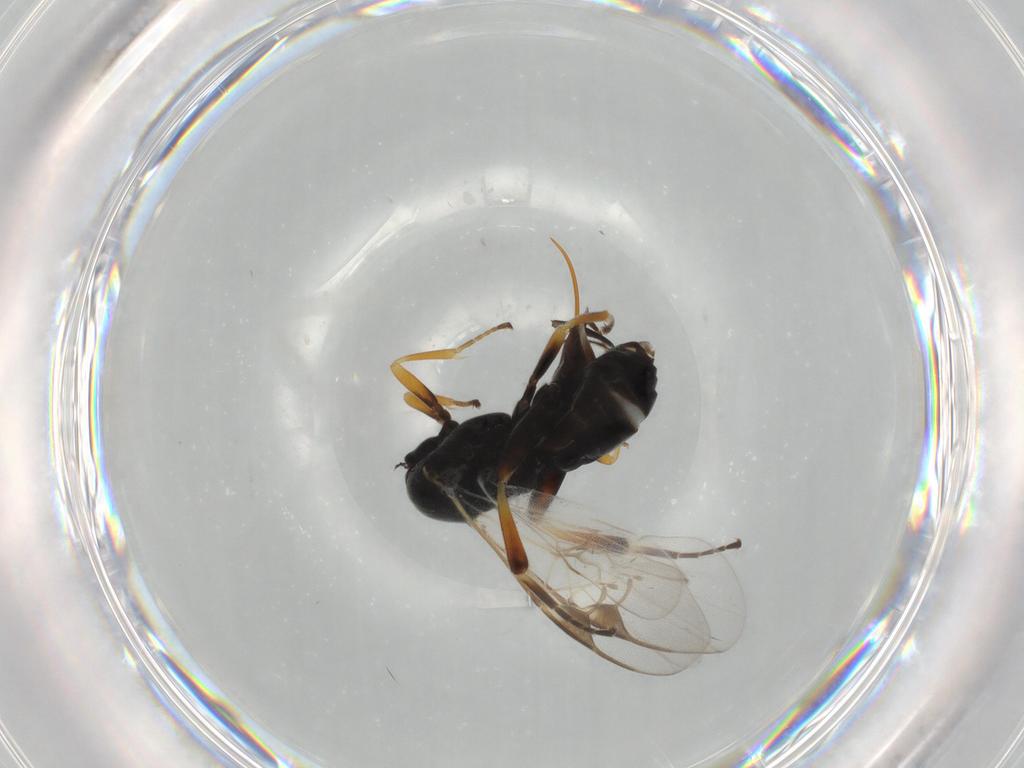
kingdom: Animalia
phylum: Arthropoda
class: Insecta
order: Hymenoptera
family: Braconidae
